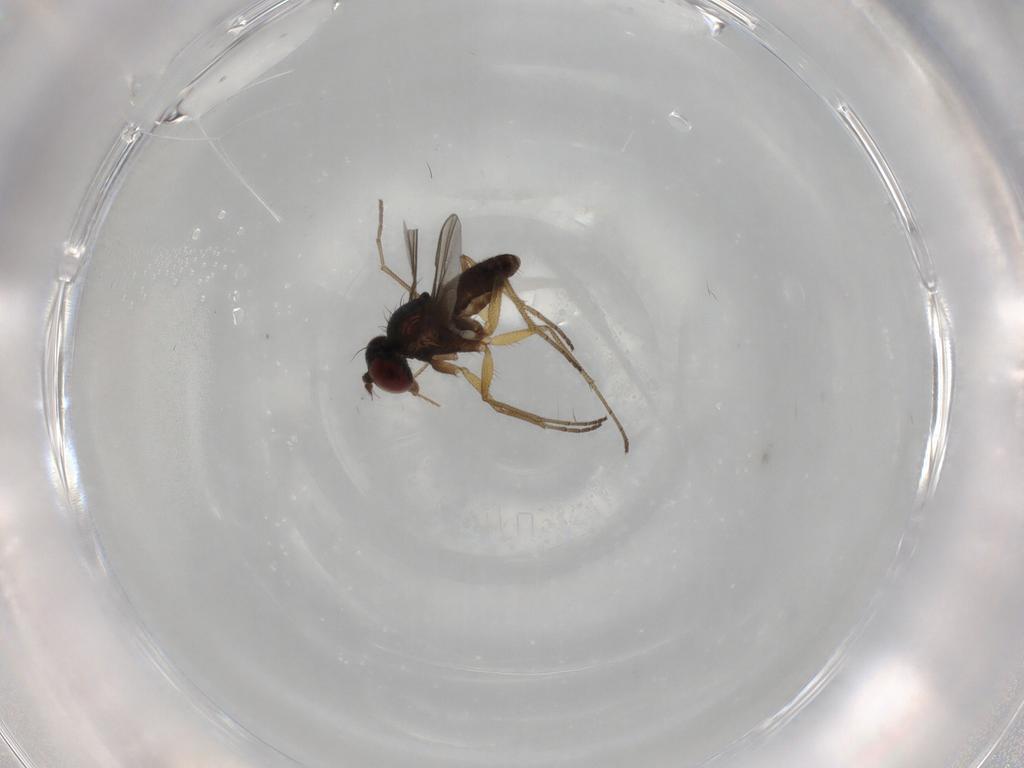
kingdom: Animalia
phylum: Arthropoda
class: Insecta
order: Diptera
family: Dolichopodidae
